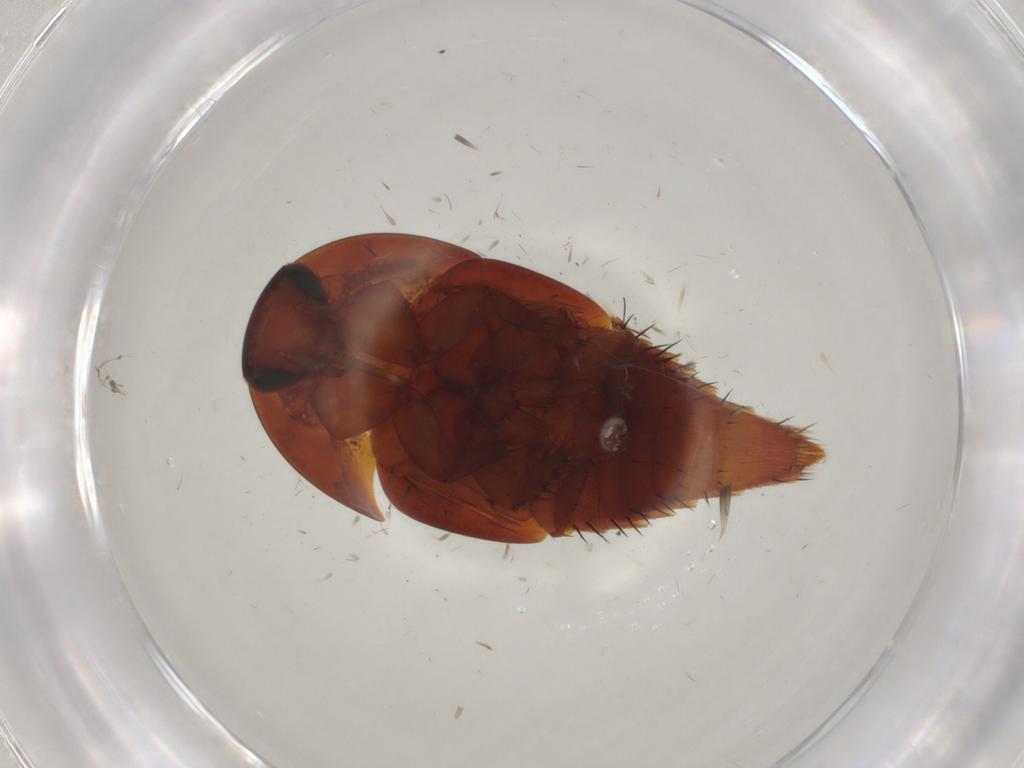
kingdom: Animalia
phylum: Arthropoda
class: Insecta
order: Coleoptera
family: Staphylinidae
